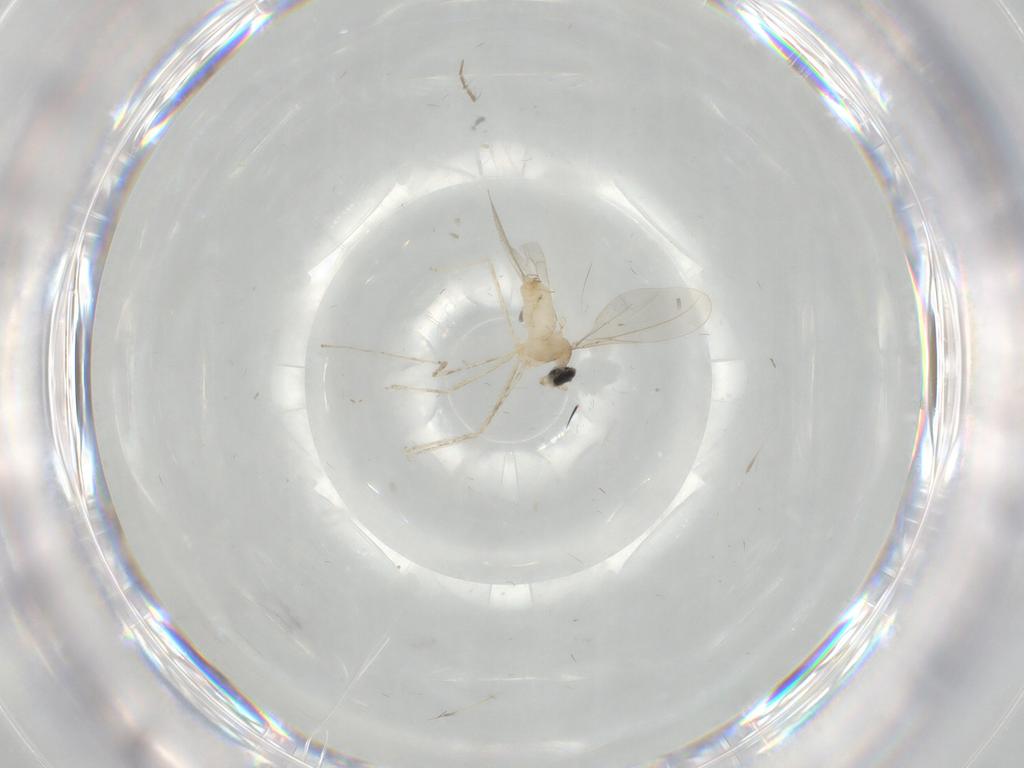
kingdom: Animalia
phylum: Arthropoda
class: Insecta
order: Diptera
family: Cecidomyiidae
